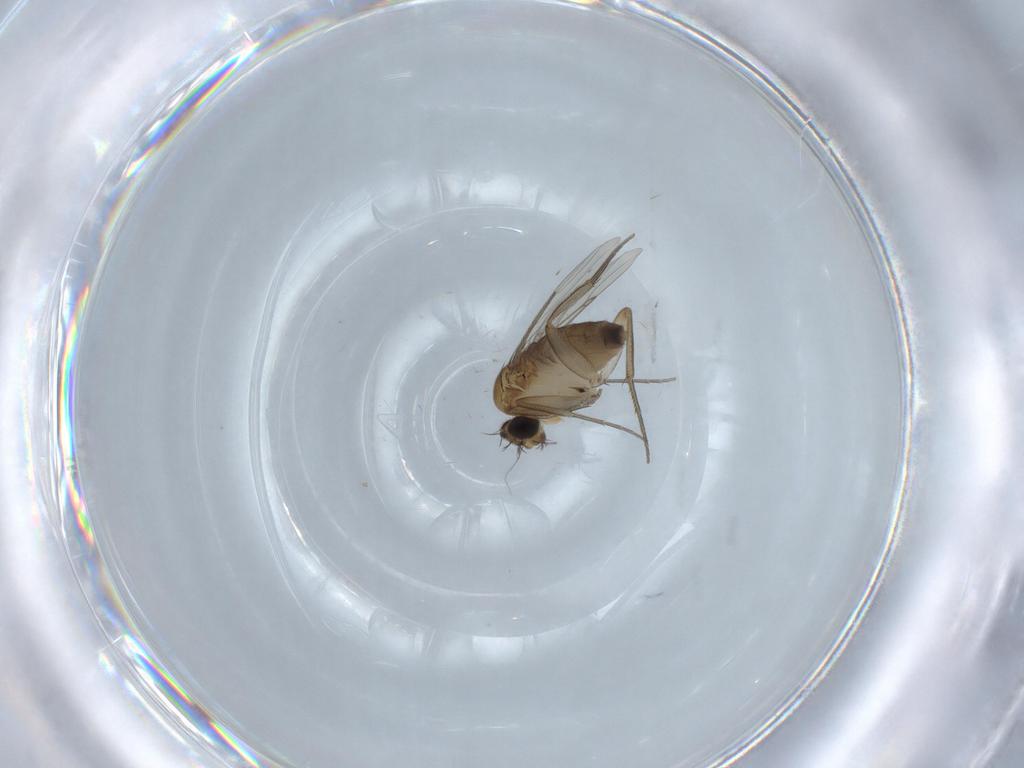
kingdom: Animalia
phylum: Arthropoda
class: Insecta
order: Diptera
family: Phoridae
